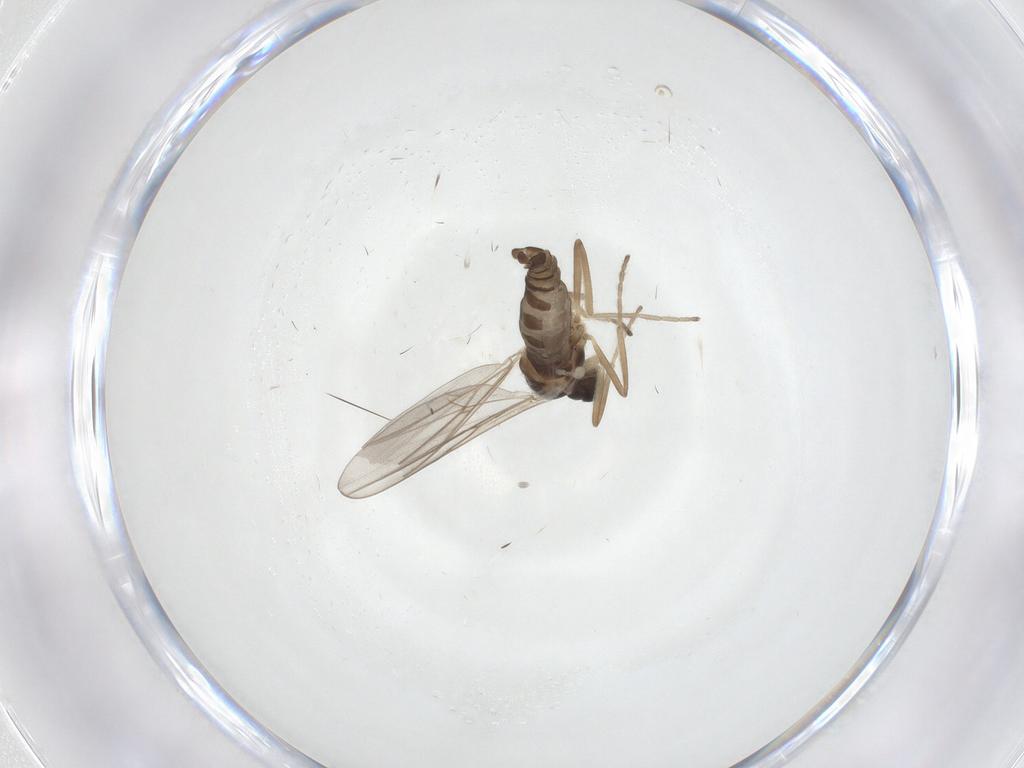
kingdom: Animalia
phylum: Arthropoda
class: Insecta
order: Diptera
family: Cecidomyiidae
